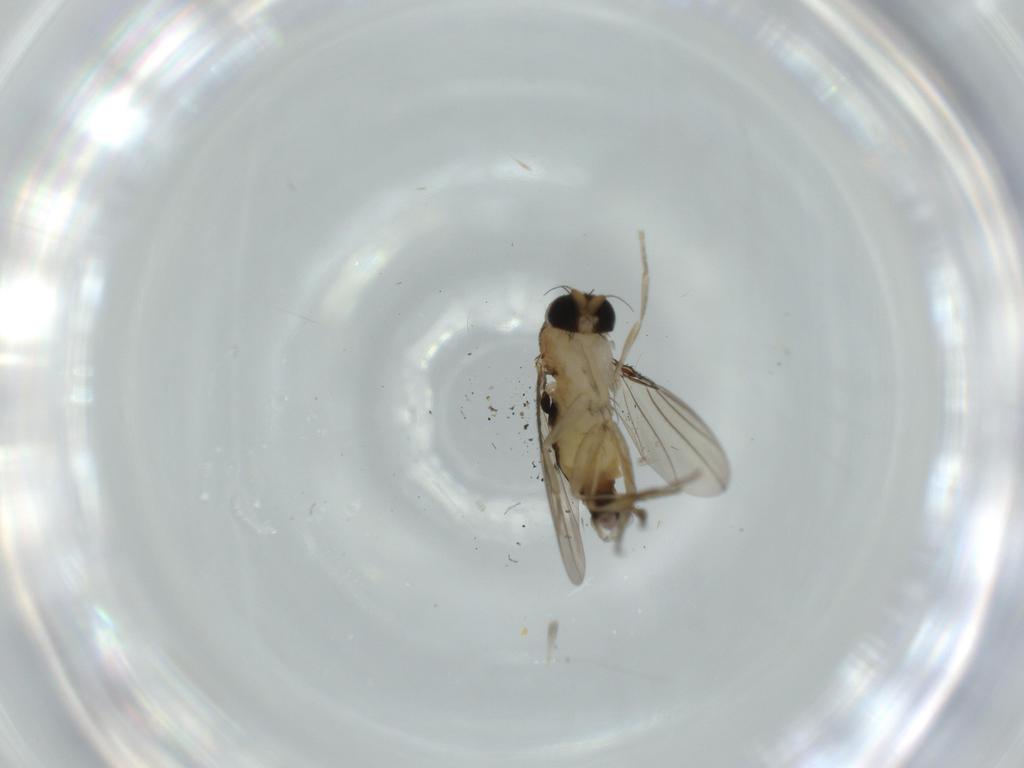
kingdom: Animalia
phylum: Arthropoda
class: Insecta
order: Diptera
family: Phoridae
